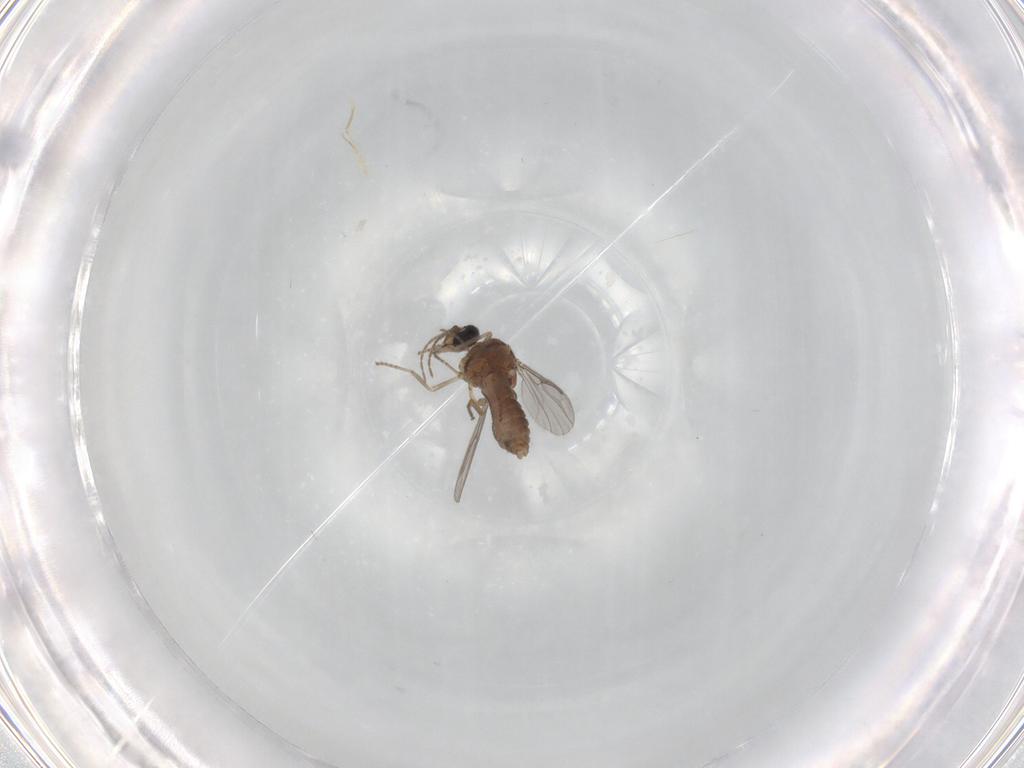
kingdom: Animalia
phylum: Arthropoda
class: Insecta
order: Diptera
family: Ceratopogonidae
